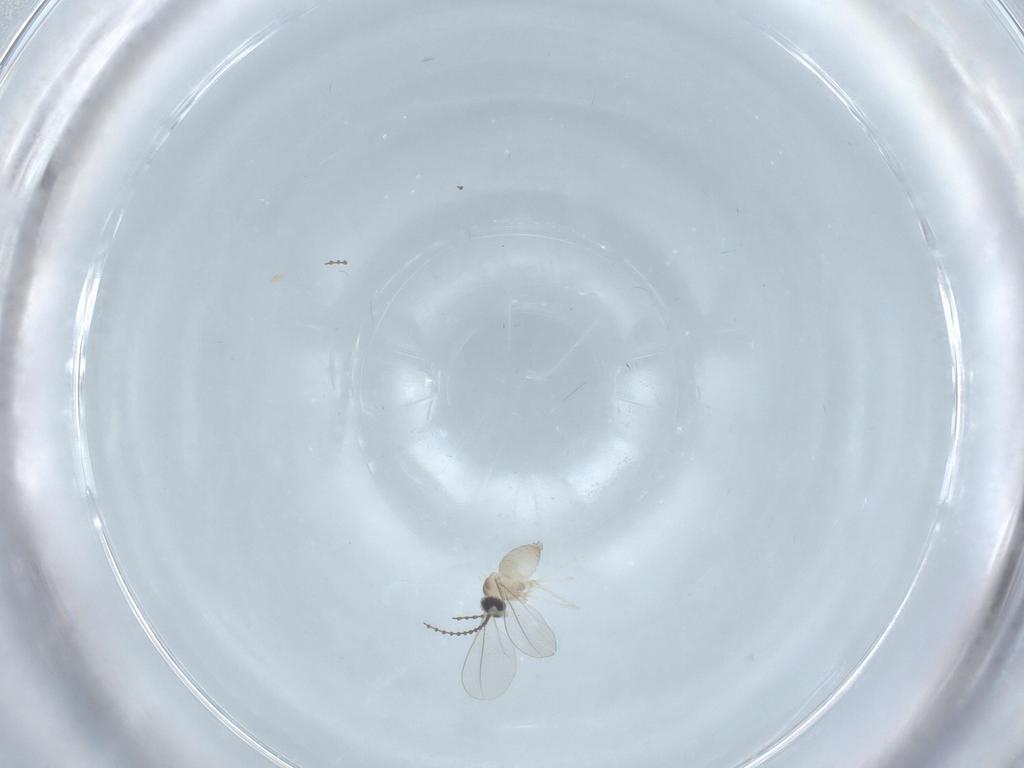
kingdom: Animalia
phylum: Arthropoda
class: Insecta
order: Diptera
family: Cecidomyiidae
